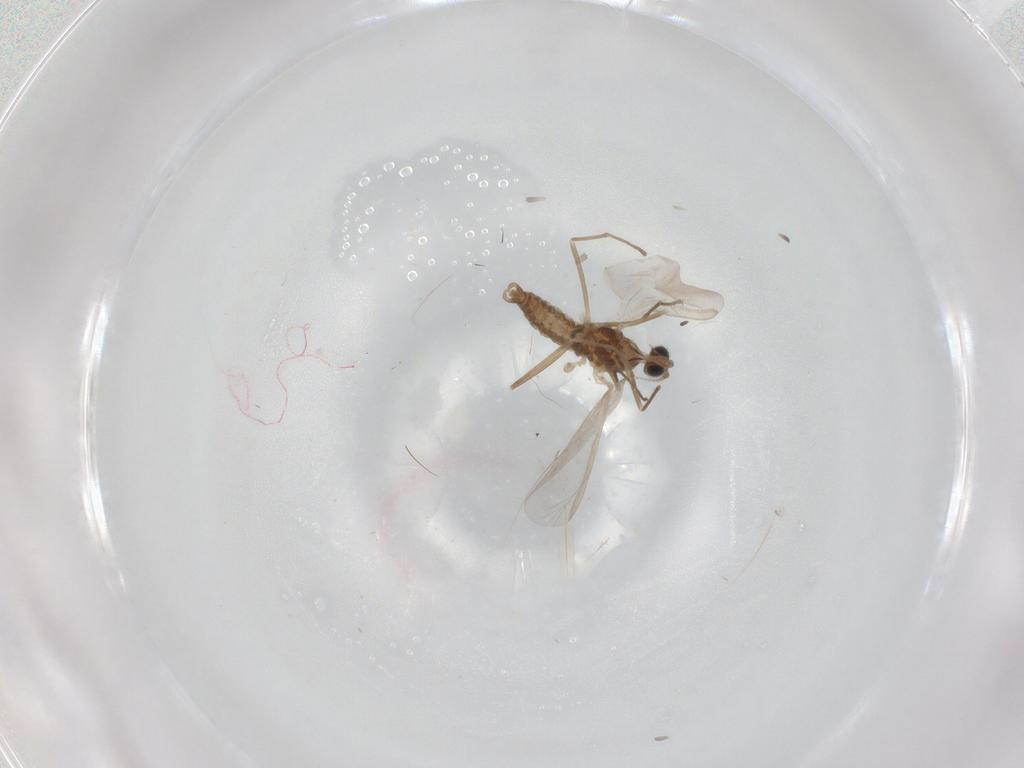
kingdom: Animalia
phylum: Arthropoda
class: Insecta
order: Diptera
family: Cecidomyiidae
